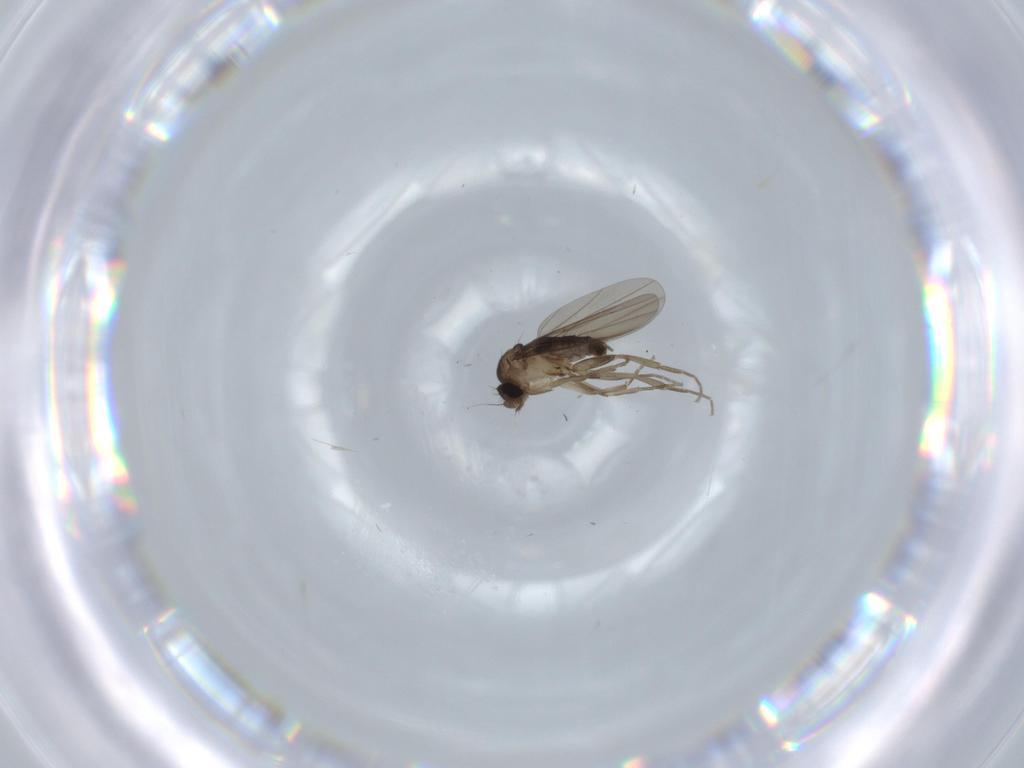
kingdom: Animalia
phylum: Arthropoda
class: Insecta
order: Diptera
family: Phoridae
